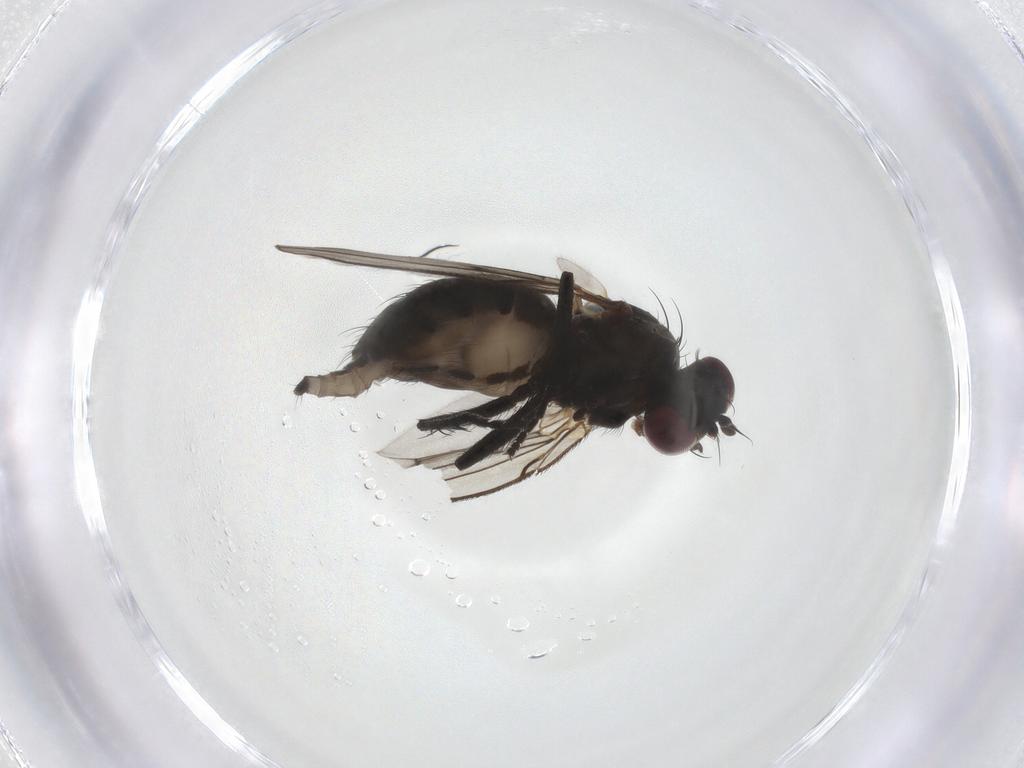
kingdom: Animalia
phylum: Arthropoda
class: Insecta
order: Diptera
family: Muscidae
